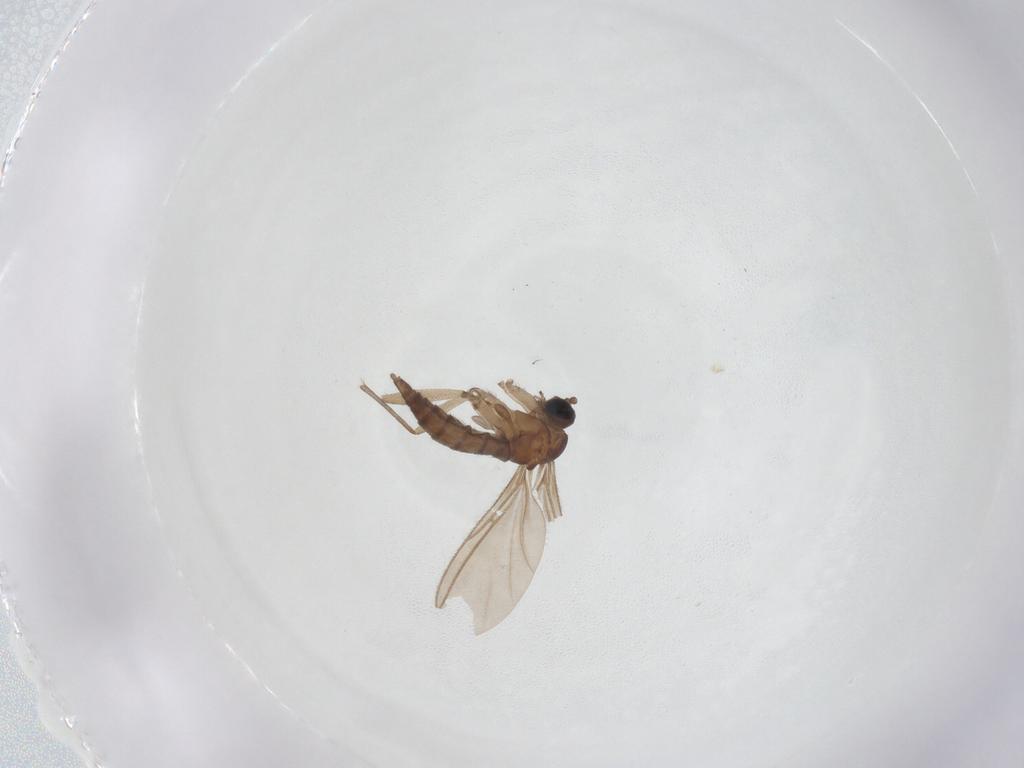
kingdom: Animalia
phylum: Arthropoda
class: Insecta
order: Diptera
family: Sciaridae
